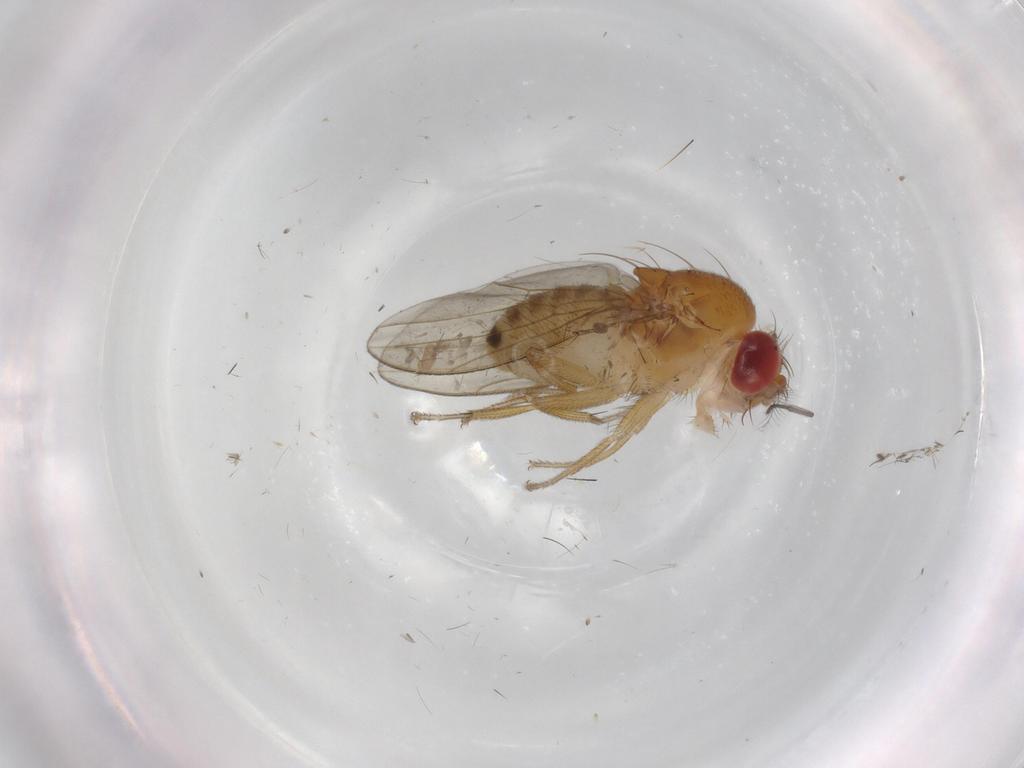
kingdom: Animalia
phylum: Arthropoda
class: Insecta
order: Diptera
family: Drosophilidae
